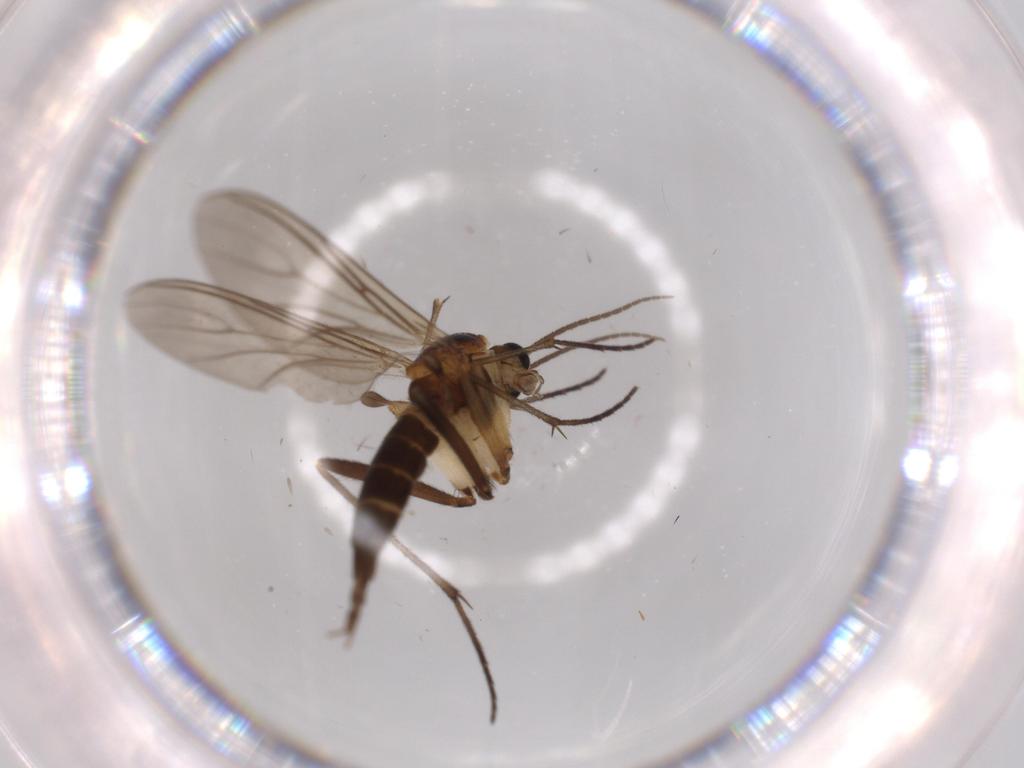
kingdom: Animalia
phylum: Arthropoda
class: Insecta
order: Diptera
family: Sciaridae
